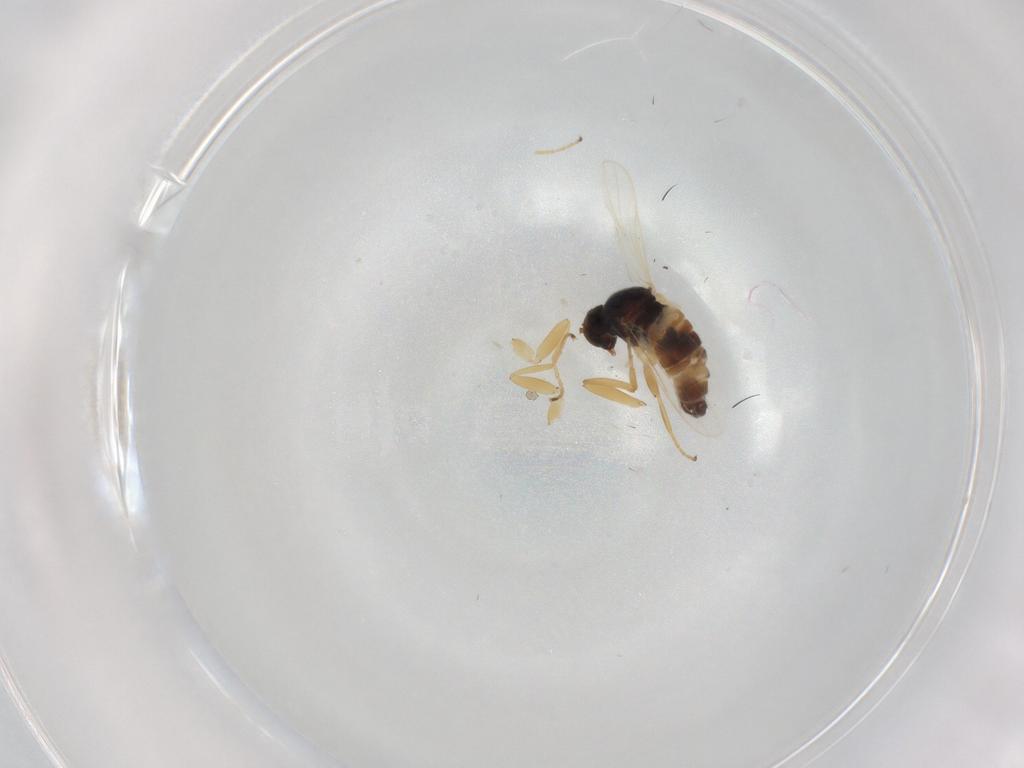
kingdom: Animalia
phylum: Arthropoda
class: Insecta
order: Diptera
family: Hybotidae
